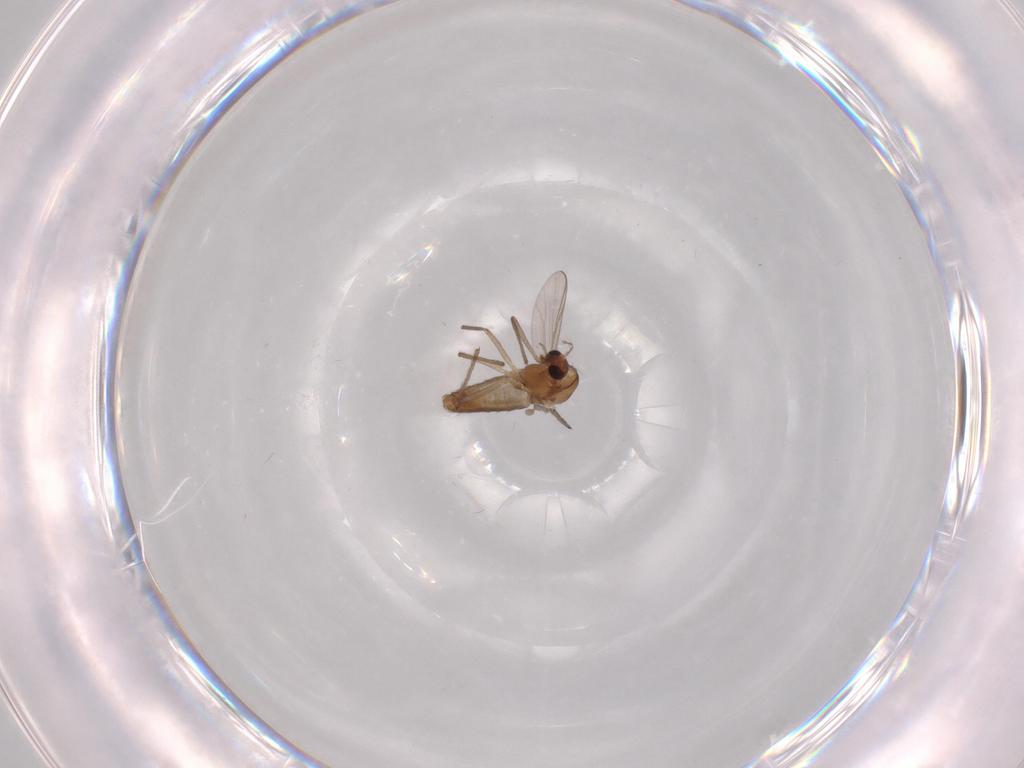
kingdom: Animalia
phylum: Arthropoda
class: Insecta
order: Diptera
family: Chironomidae
